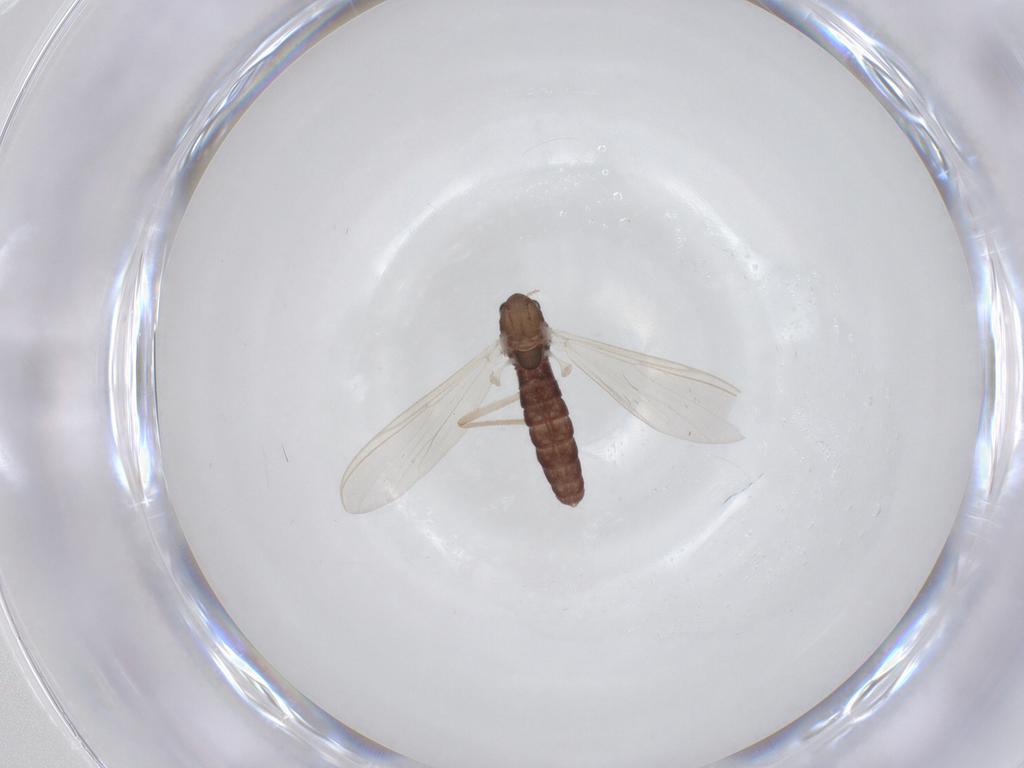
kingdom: Animalia
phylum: Arthropoda
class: Insecta
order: Diptera
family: Chironomidae
